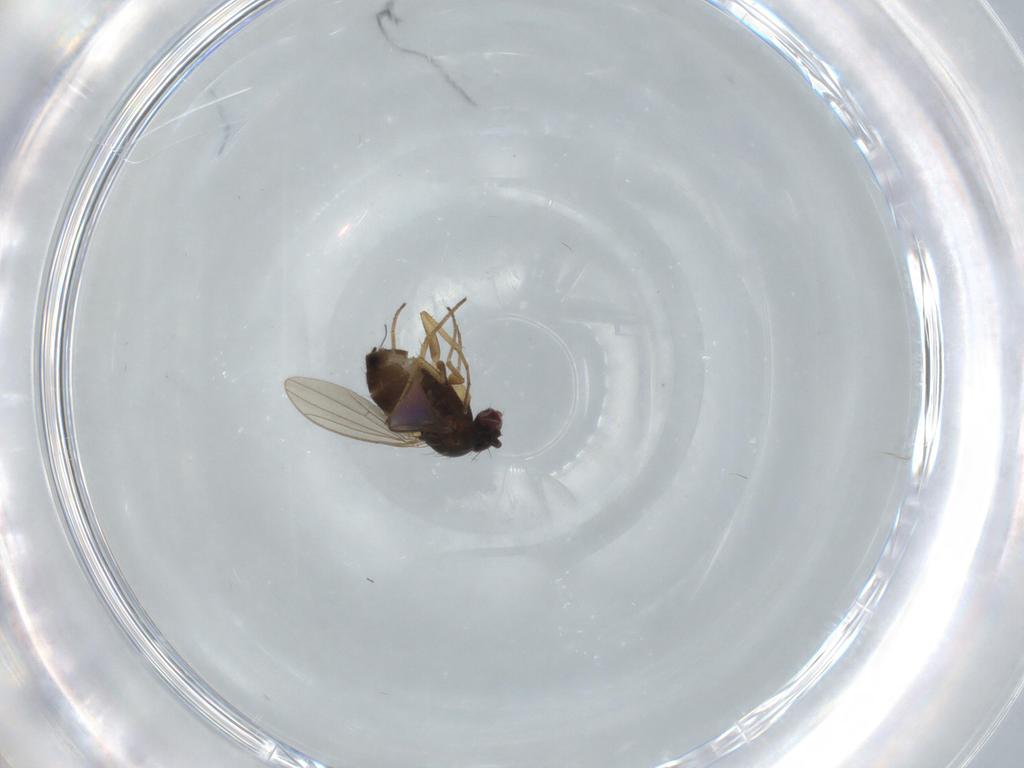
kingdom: Animalia
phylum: Arthropoda
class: Insecta
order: Diptera
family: Dolichopodidae
